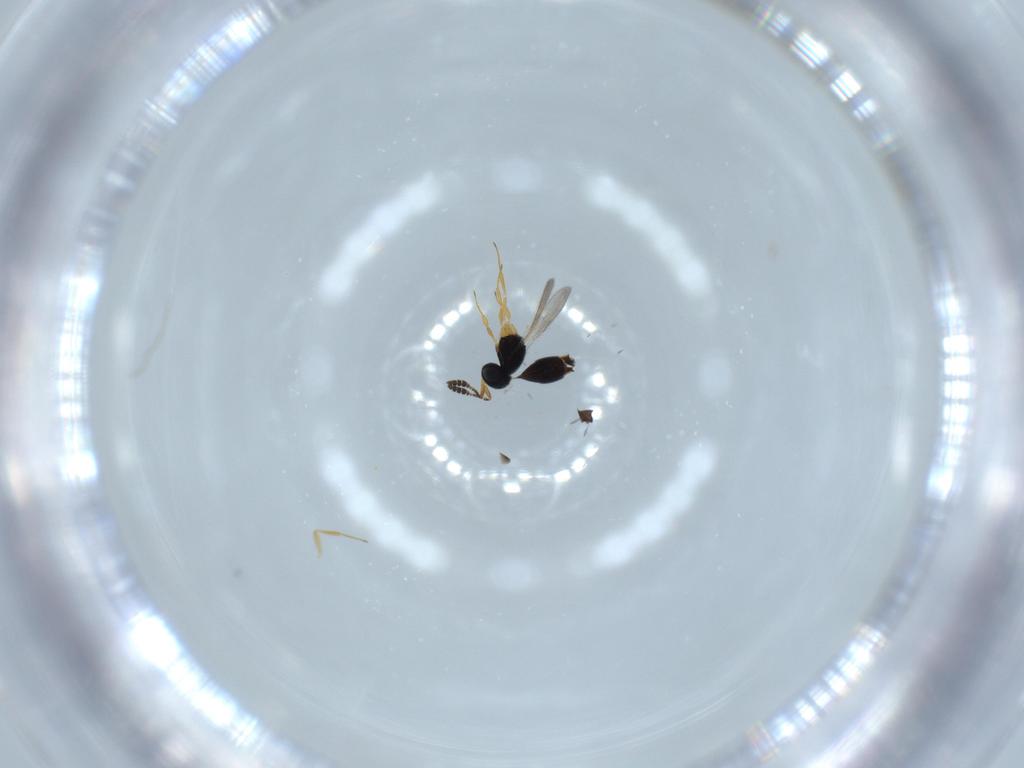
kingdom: Animalia
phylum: Arthropoda
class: Insecta
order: Hymenoptera
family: Scelionidae
